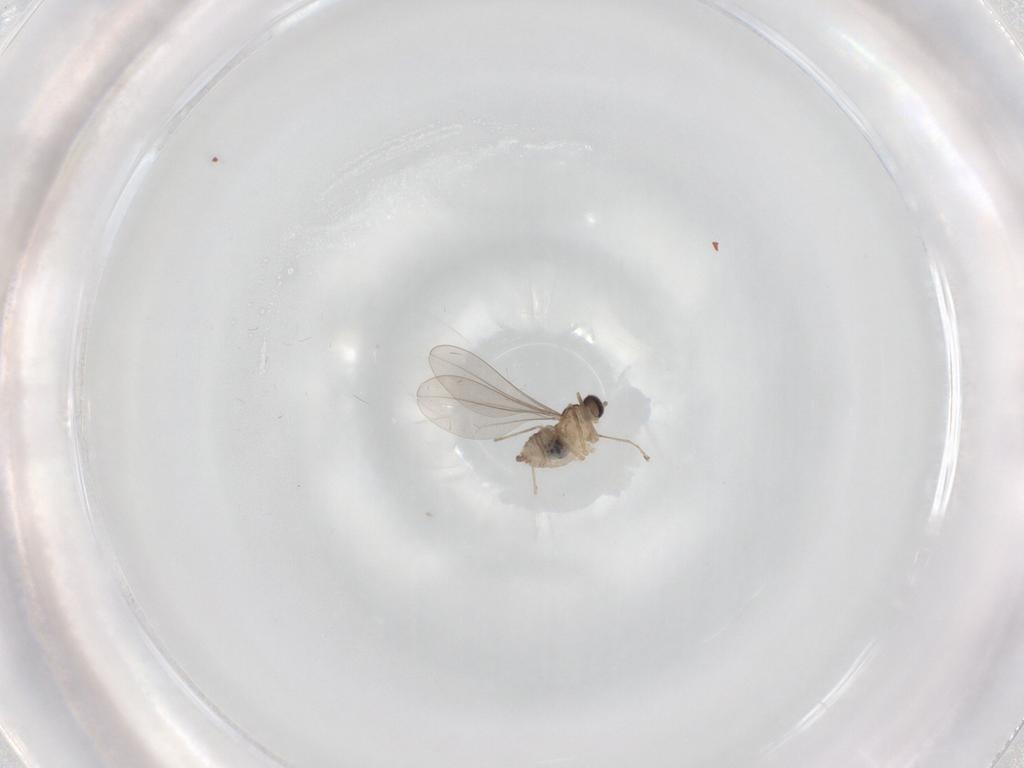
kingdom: Animalia
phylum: Arthropoda
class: Insecta
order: Diptera
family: Cecidomyiidae
